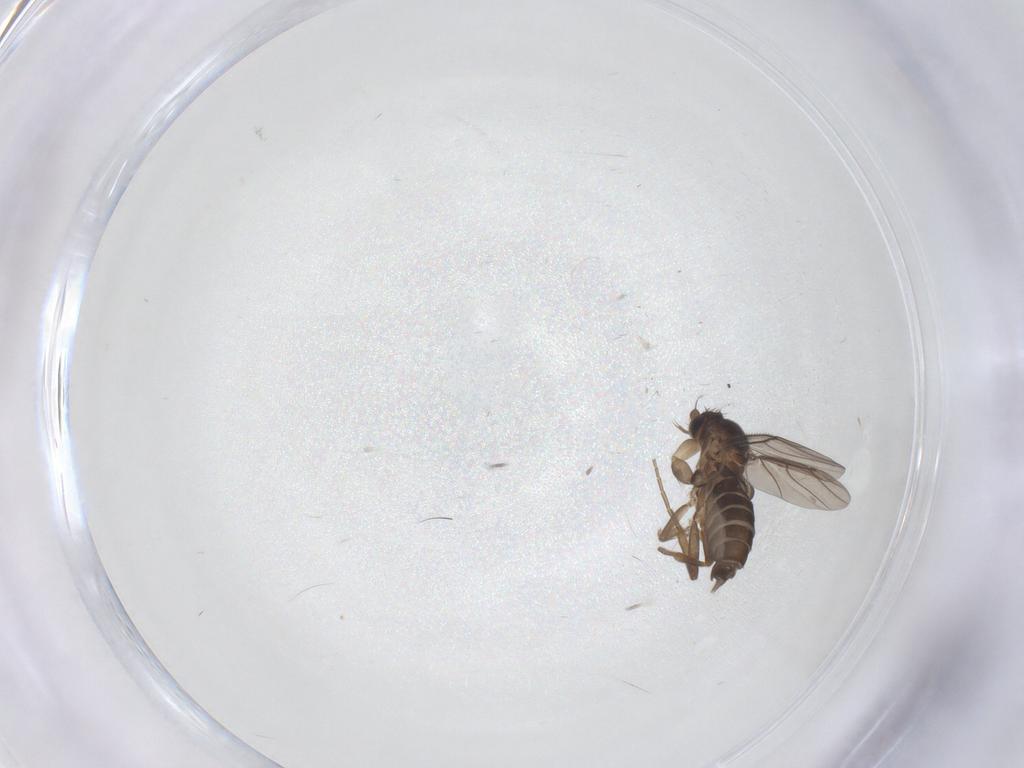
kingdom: Animalia
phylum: Arthropoda
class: Insecta
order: Diptera
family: Phoridae
